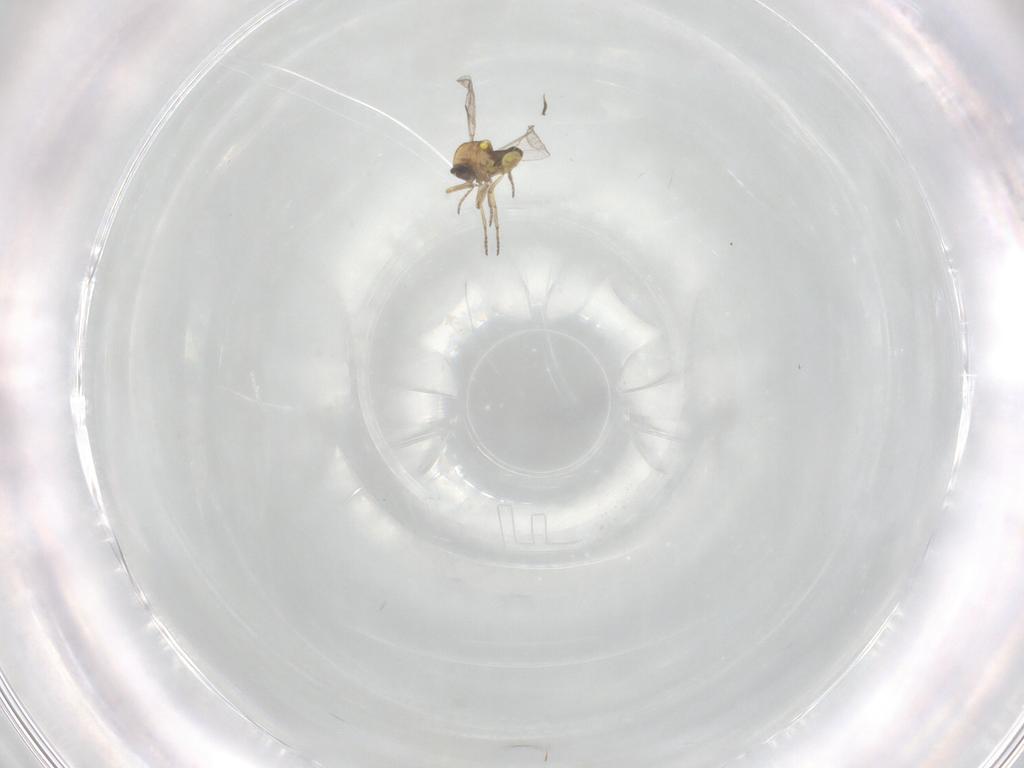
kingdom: Animalia
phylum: Arthropoda
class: Insecta
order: Diptera
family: Ceratopogonidae
